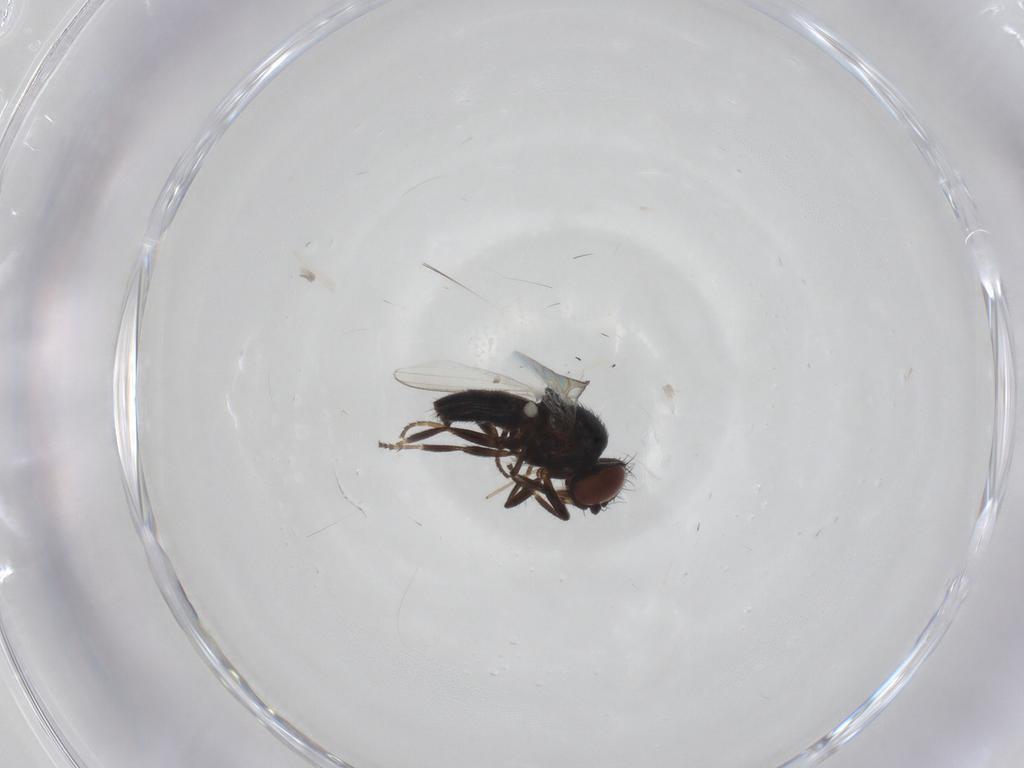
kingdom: Animalia
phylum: Arthropoda
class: Insecta
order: Diptera
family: Milichiidae
